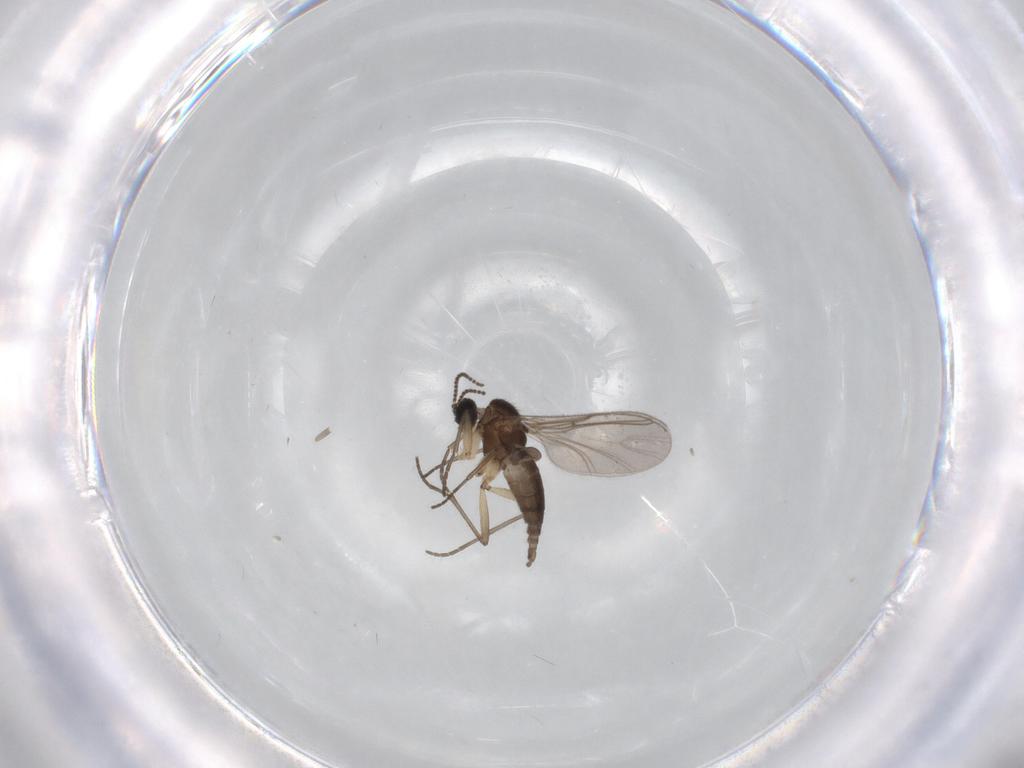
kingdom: Animalia
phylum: Arthropoda
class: Insecta
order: Diptera
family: Sciaridae
